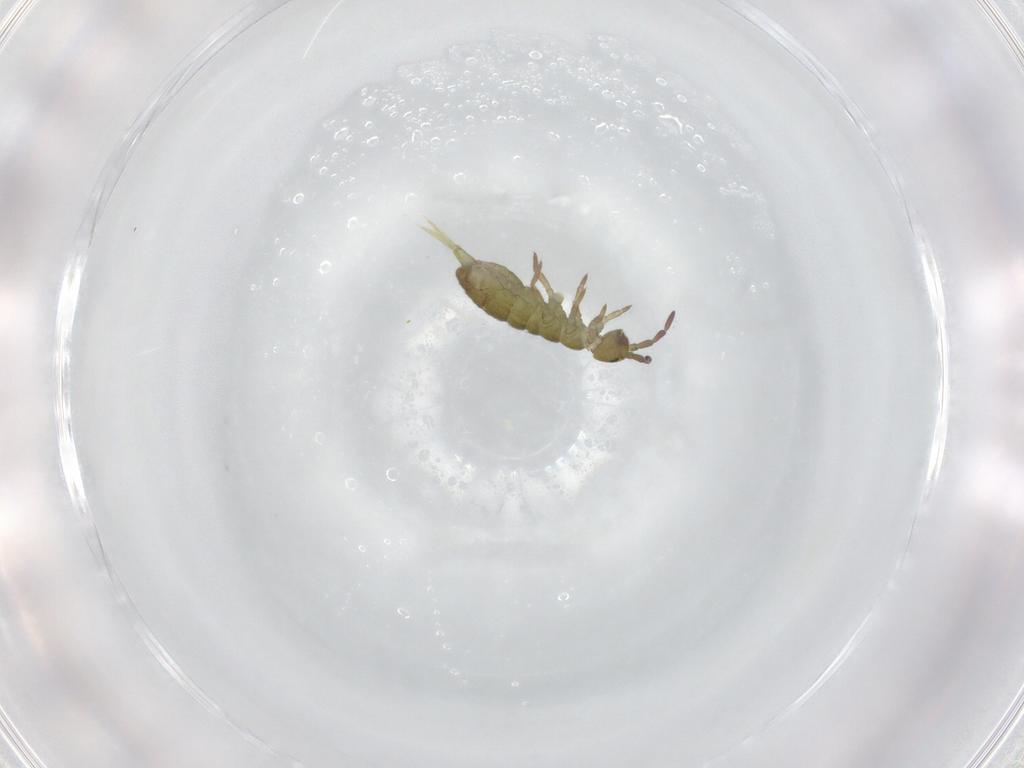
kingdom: Animalia
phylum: Arthropoda
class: Collembola
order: Entomobryomorpha
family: Isotomidae
